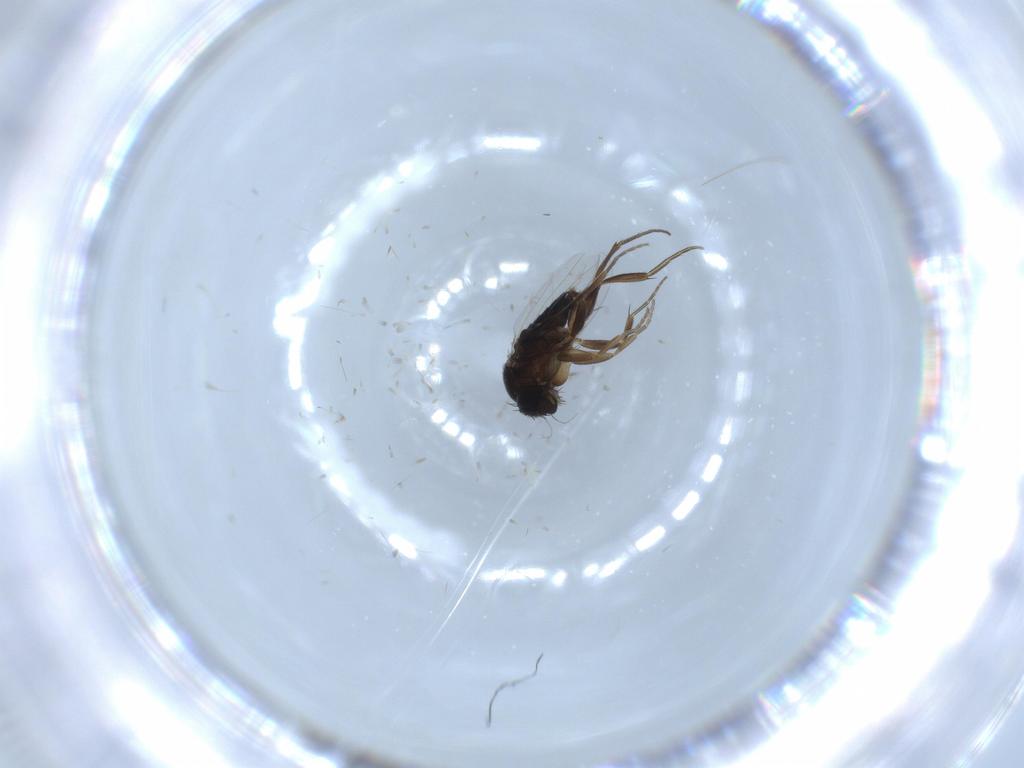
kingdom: Animalia
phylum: Arthropoda
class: Insecta
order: Diptera
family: Phoridae
